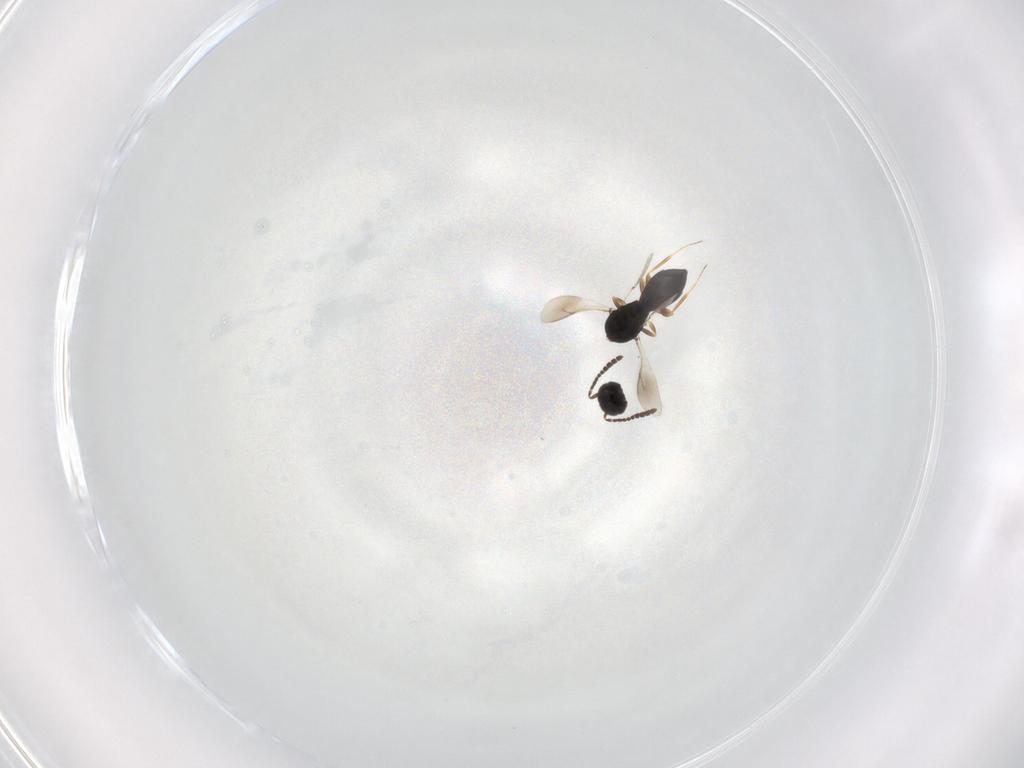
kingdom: Animalia
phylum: Arthropoda
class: Insecta
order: Hymenoptera
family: Scelionidae
